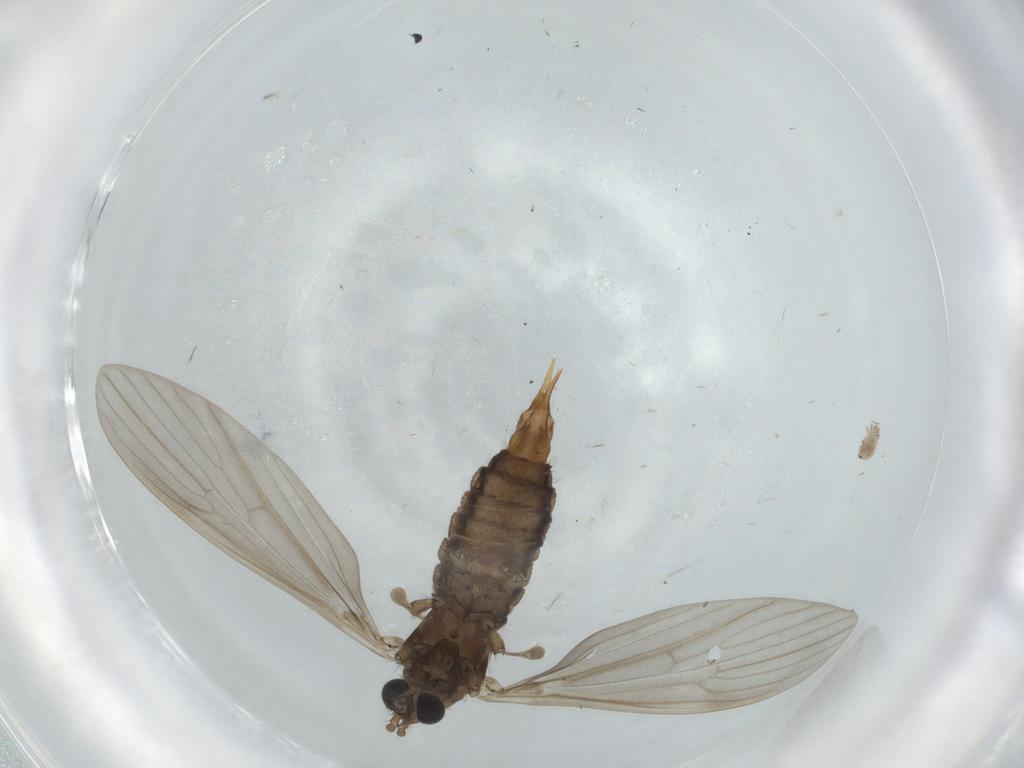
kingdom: Animalia
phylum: Arthropoda
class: Insecta
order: Diptera
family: Limoniidae
